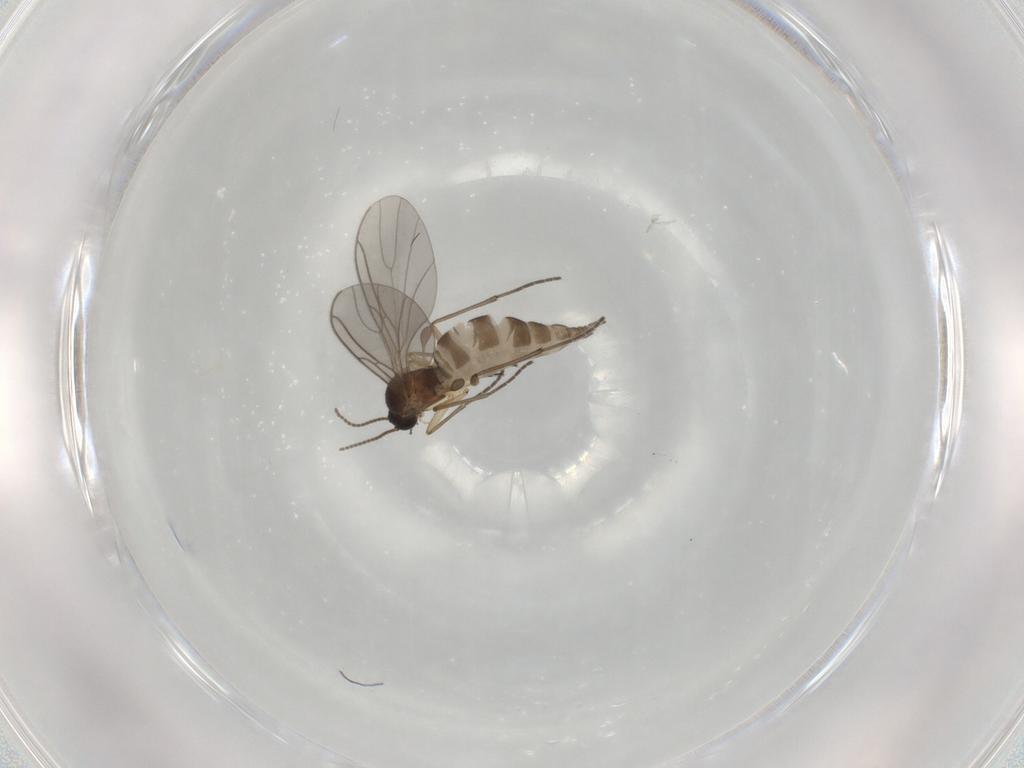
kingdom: Animalia
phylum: Arthropoda
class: Insecta
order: Diptera
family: Sciaridae
